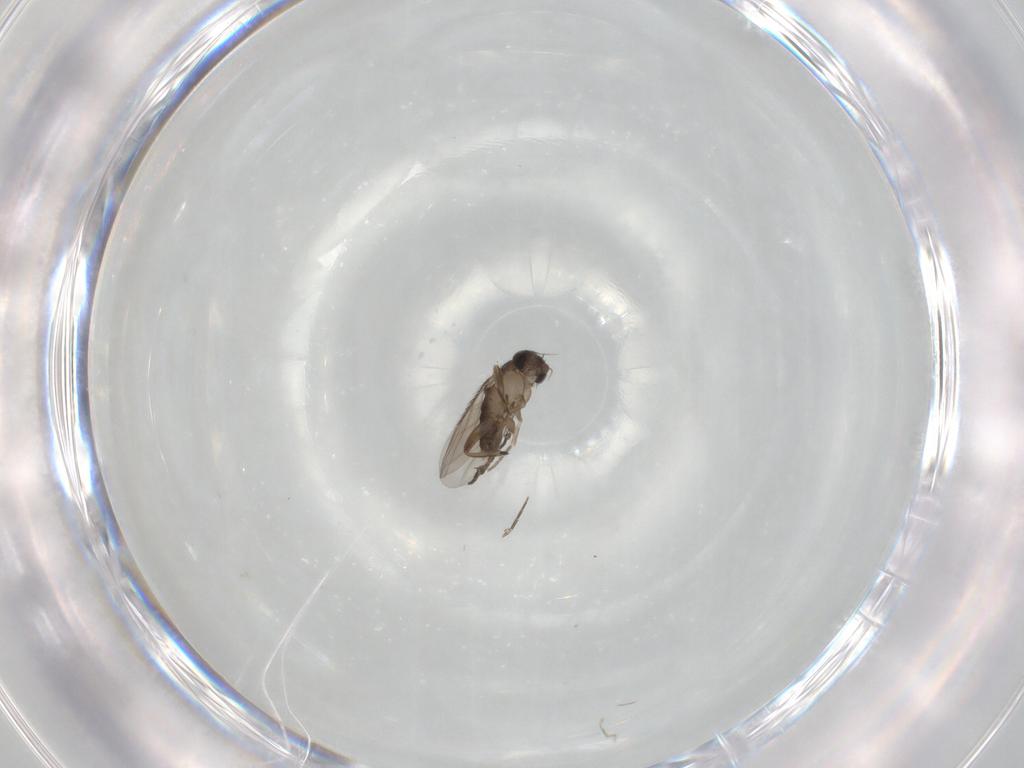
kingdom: Animalia
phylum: Arthropoda
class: Insecta
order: Diptera
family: Phoridae
